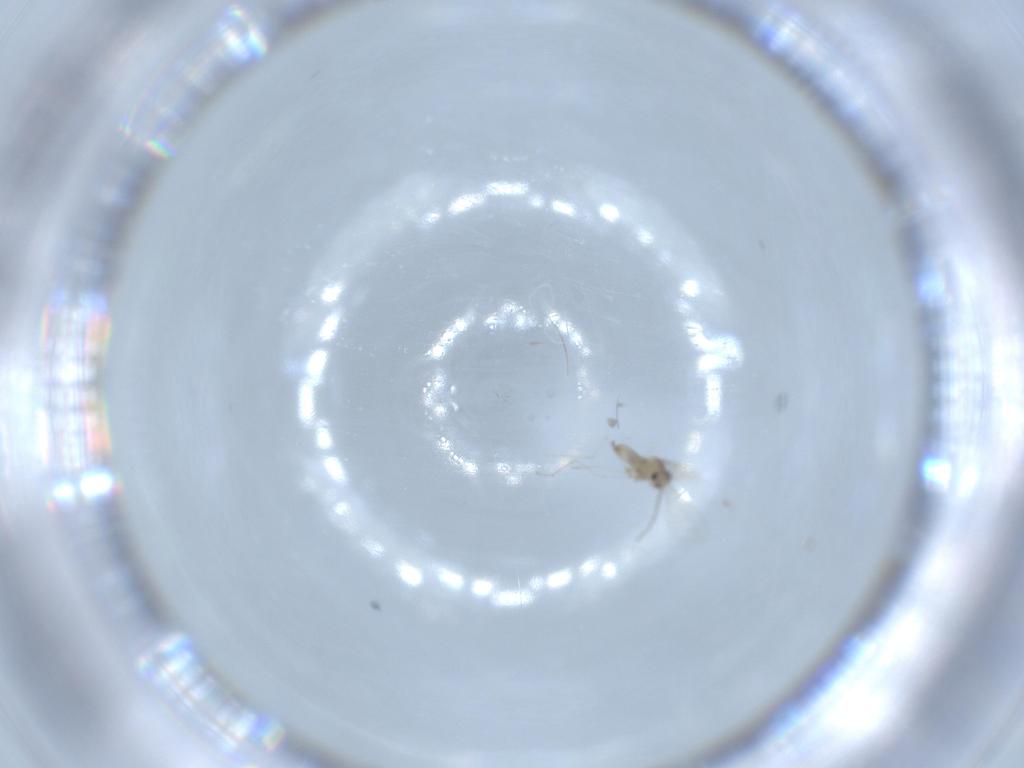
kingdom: Animalia
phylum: Arthropoda
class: Insecta
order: Diptera
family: Cecidomyiidae
